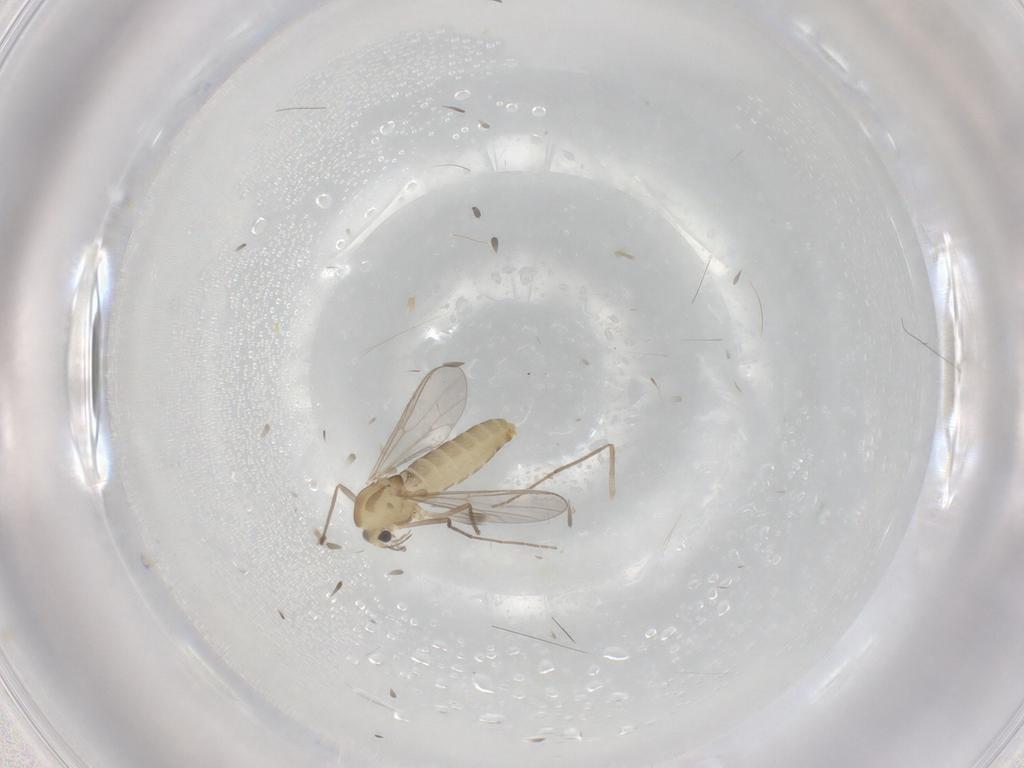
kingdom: Animalia
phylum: Arthropoda
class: Insecta
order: Diptera
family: Chironomidae
